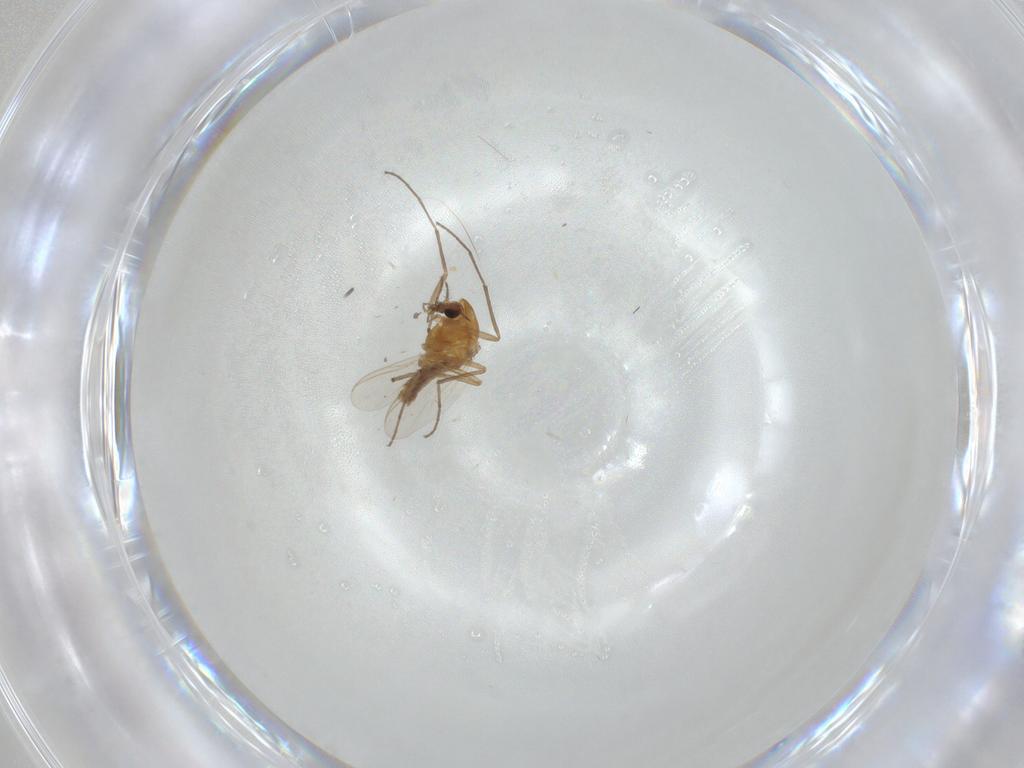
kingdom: Animalia
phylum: Arthropoda
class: Insecta
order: Diptera
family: Chironomidae
